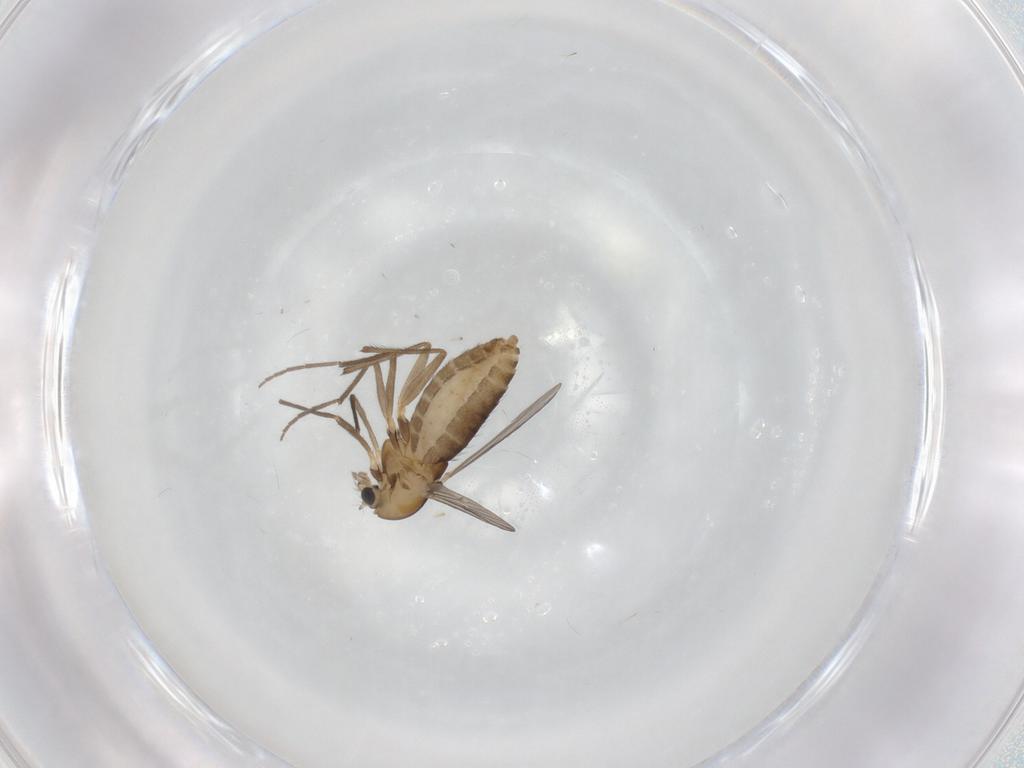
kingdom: Animalia
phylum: Arthropoda
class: Insecta
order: Diptera
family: Chironomidae
